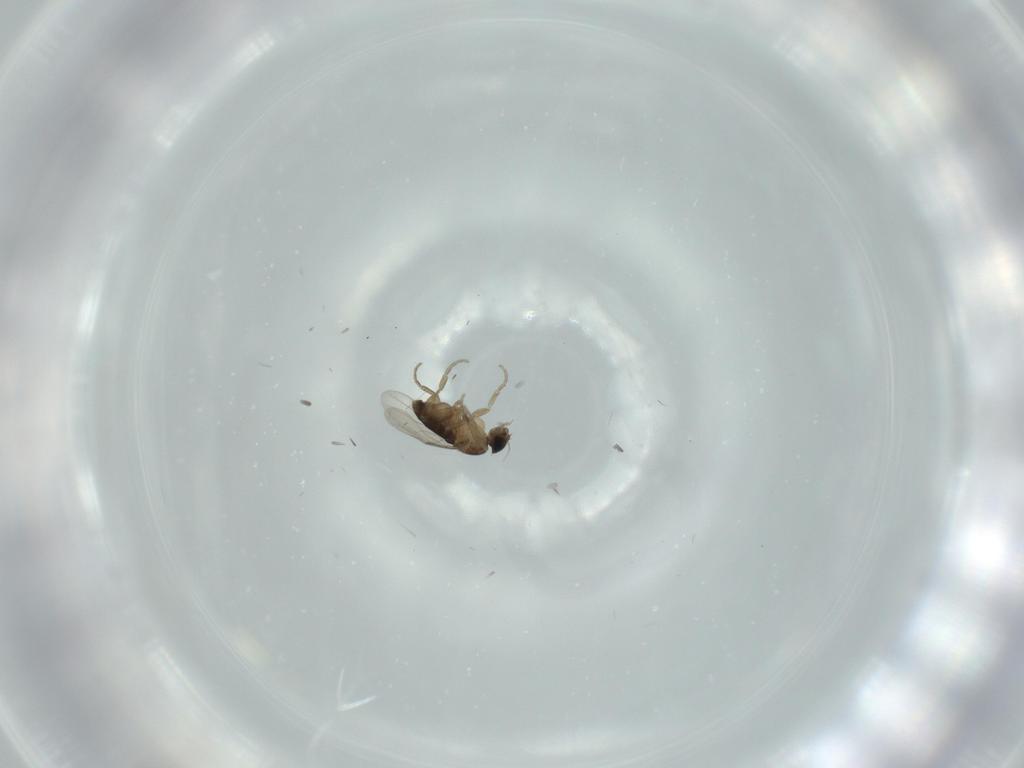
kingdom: Animalia
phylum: Arthropoda
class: Insecta
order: Diptera
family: Phoridae
